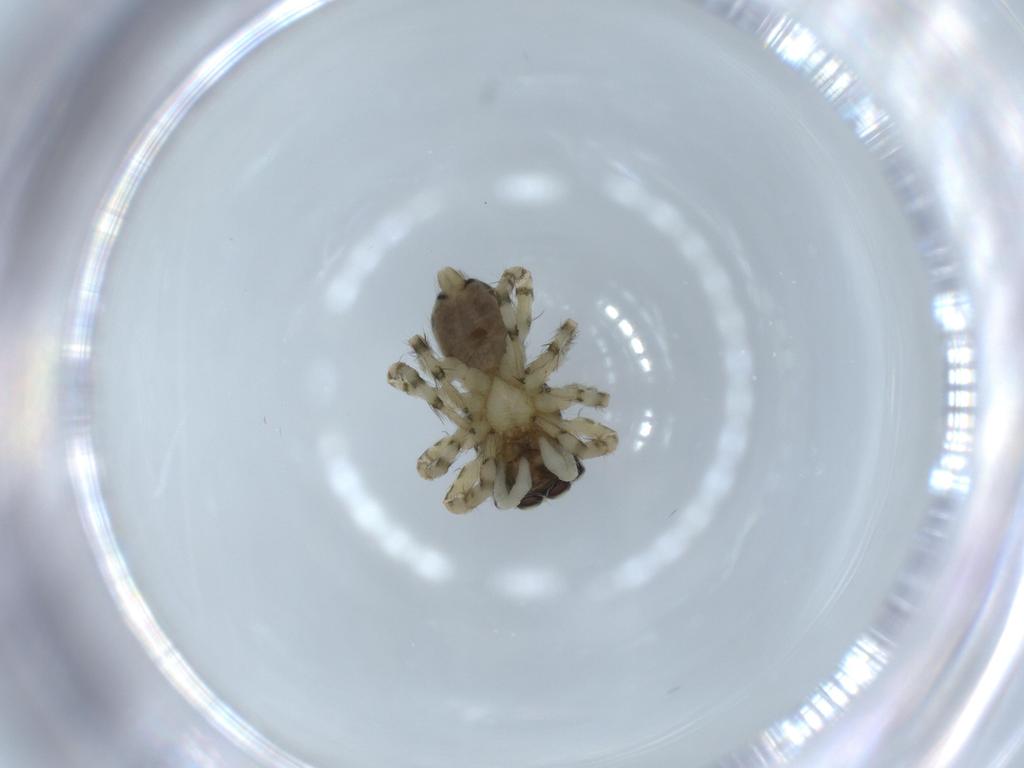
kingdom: Animalia
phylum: Arthropoda
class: Arachnida
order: Araneae
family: Salticidae
